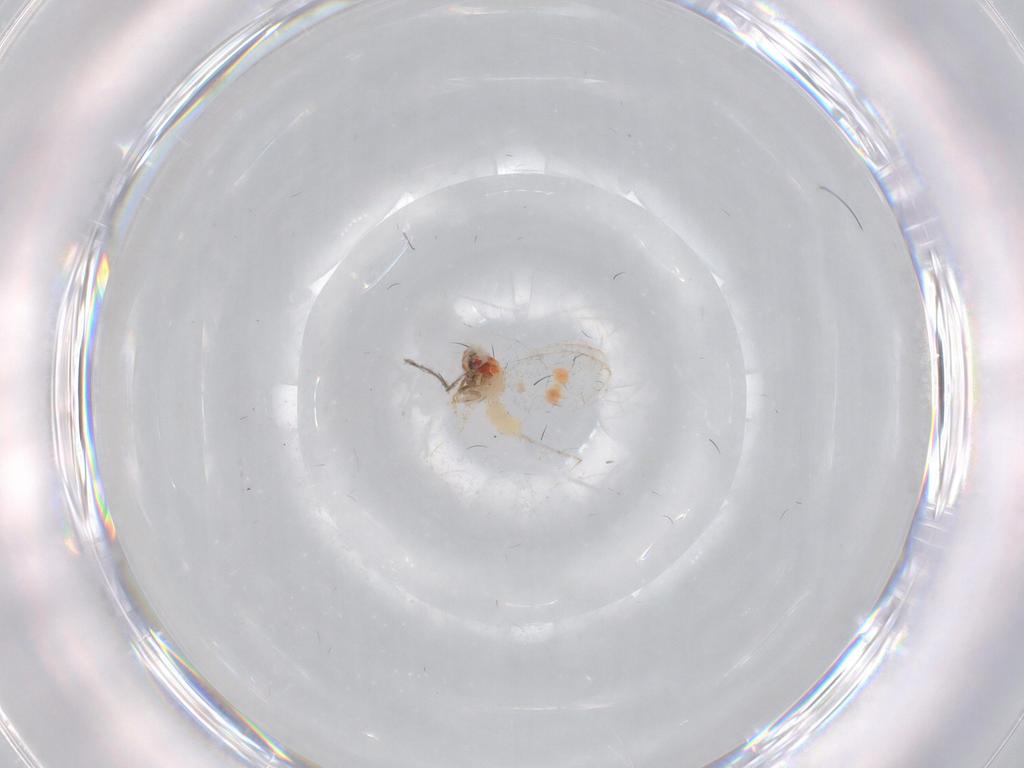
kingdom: Animalia
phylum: Arthropoda
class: Insecta
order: Hemiptera
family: Aleyrodidae
